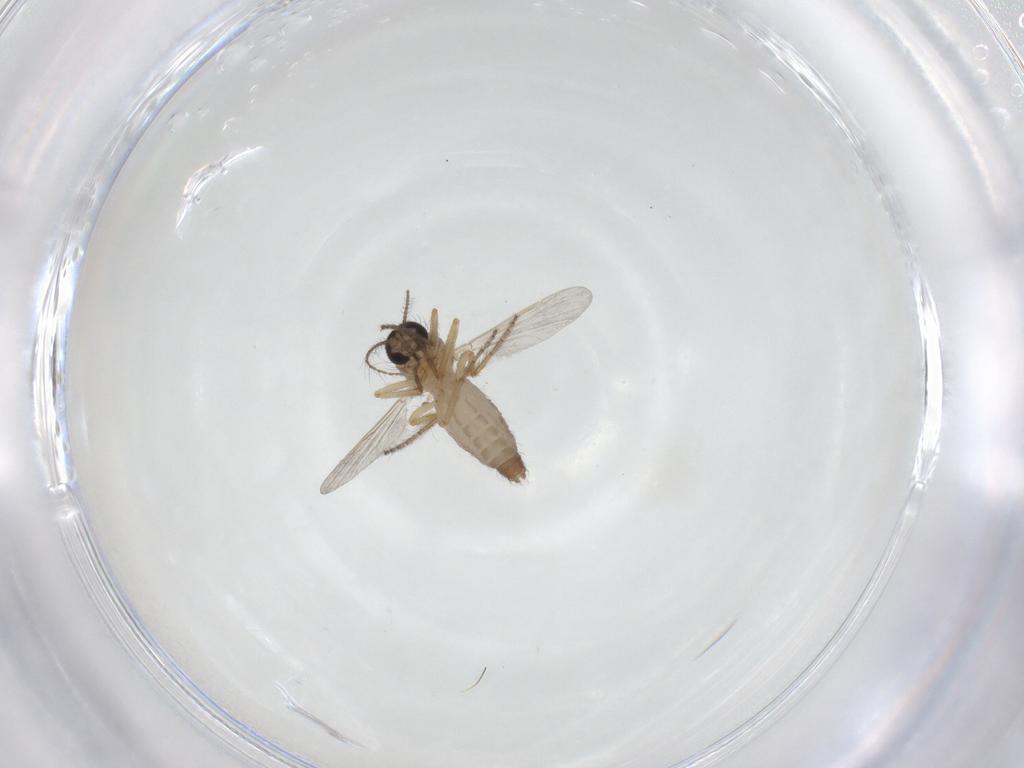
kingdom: Animalia
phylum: Arthropoda
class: Insecta
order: Diptera
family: Ceratopogonidae
